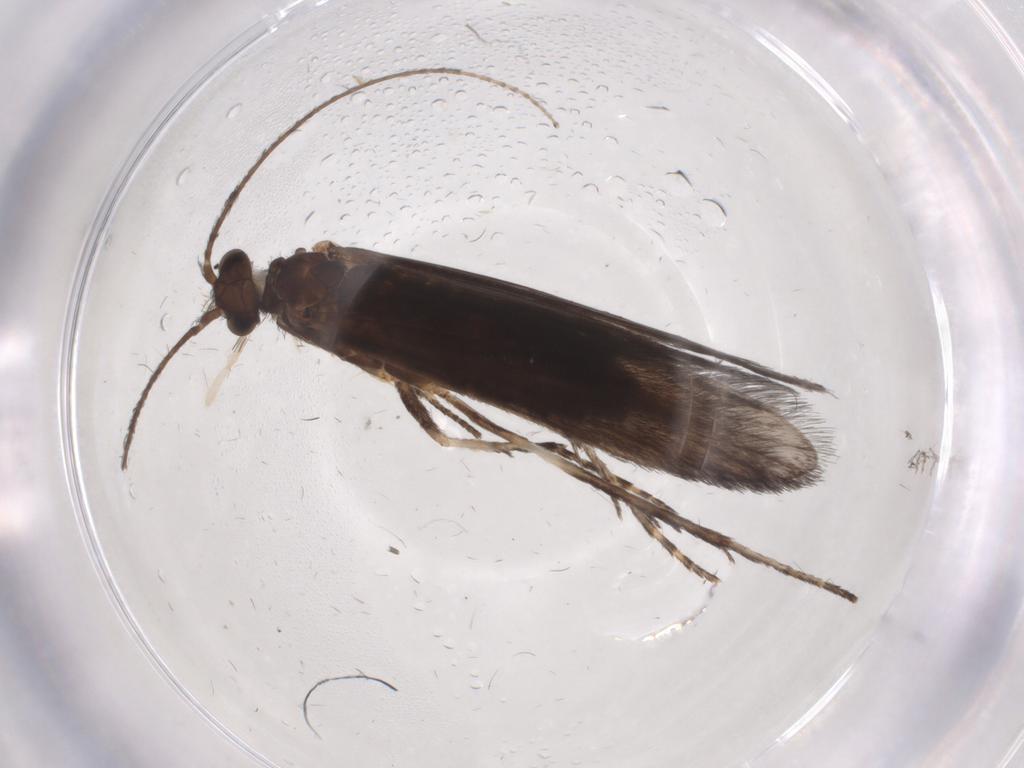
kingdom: Animalia
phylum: Arthropoda
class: Insecta
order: Trichoptera
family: Xiphocentronidae
